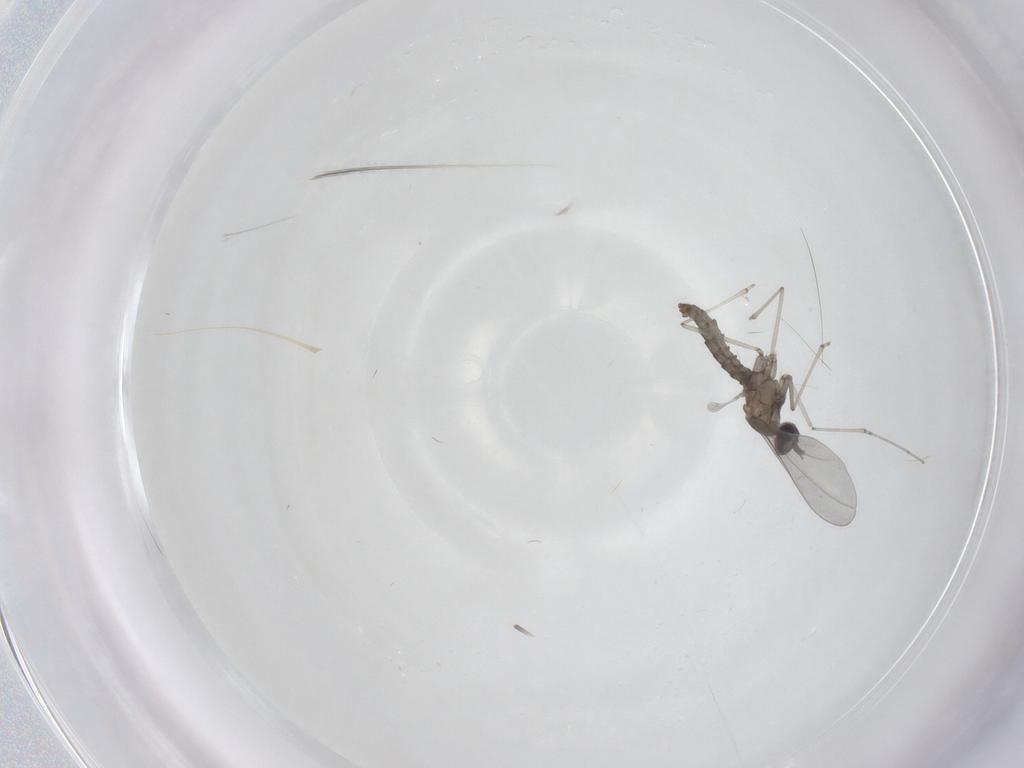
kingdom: Animalia
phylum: Arthropoda
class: Insecta
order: Diptera
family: Cecidomyiidae
